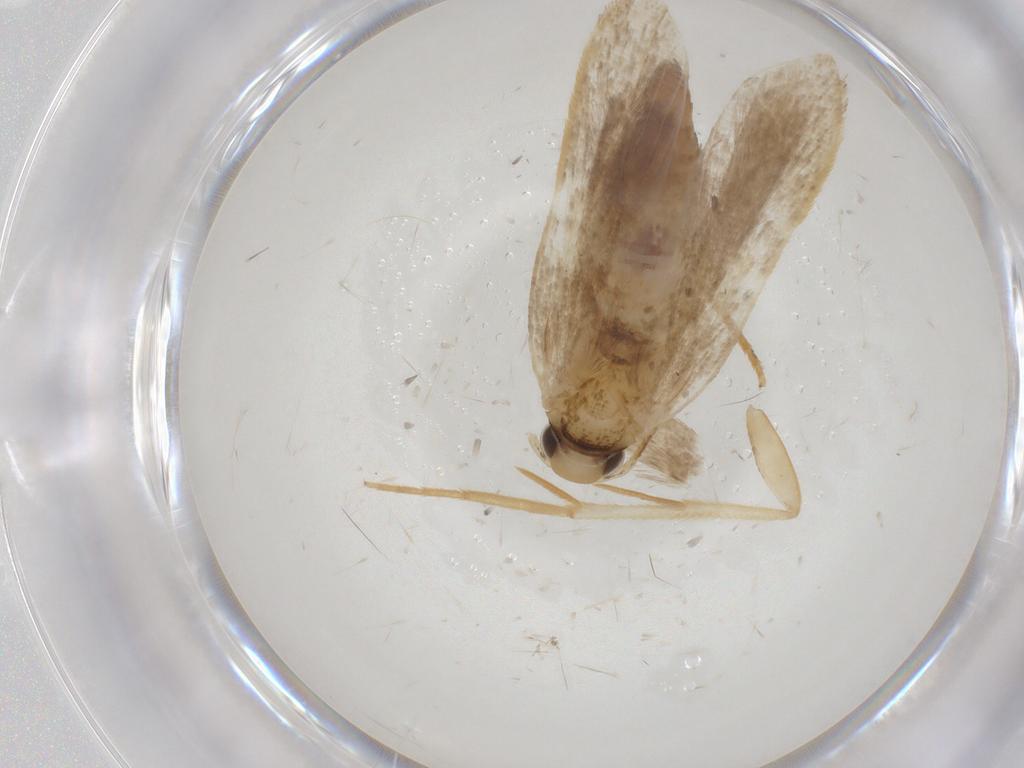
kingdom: Animalia
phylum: Arthropoda
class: Insecta
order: Lepidoptera
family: Gelechiidae
